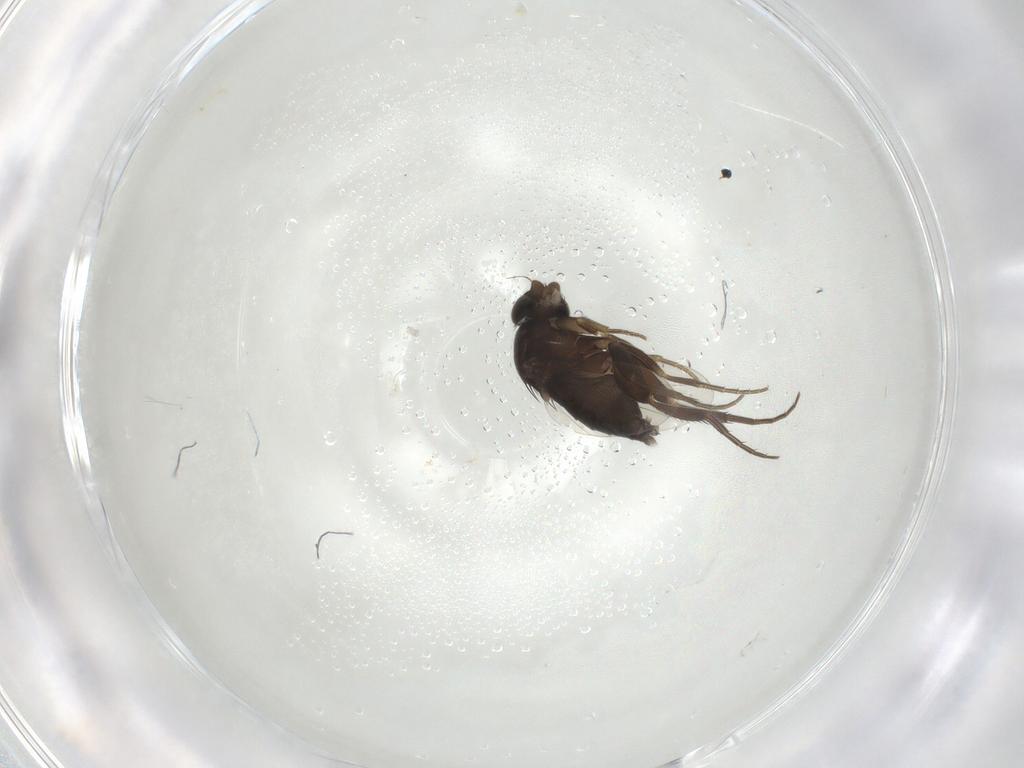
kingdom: Animalia
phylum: Arthropoda
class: Insecta
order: Diptera
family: Phoridae
